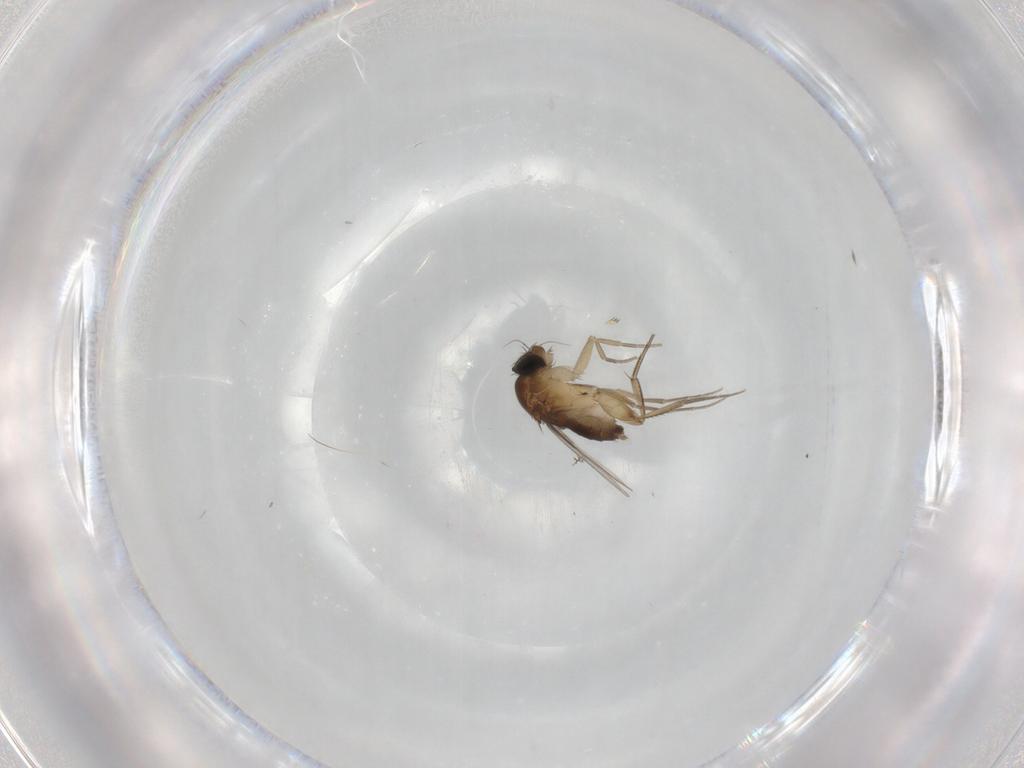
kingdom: Animalia
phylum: Arthropoda
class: Insecta
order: Diptera
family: Phoridae
